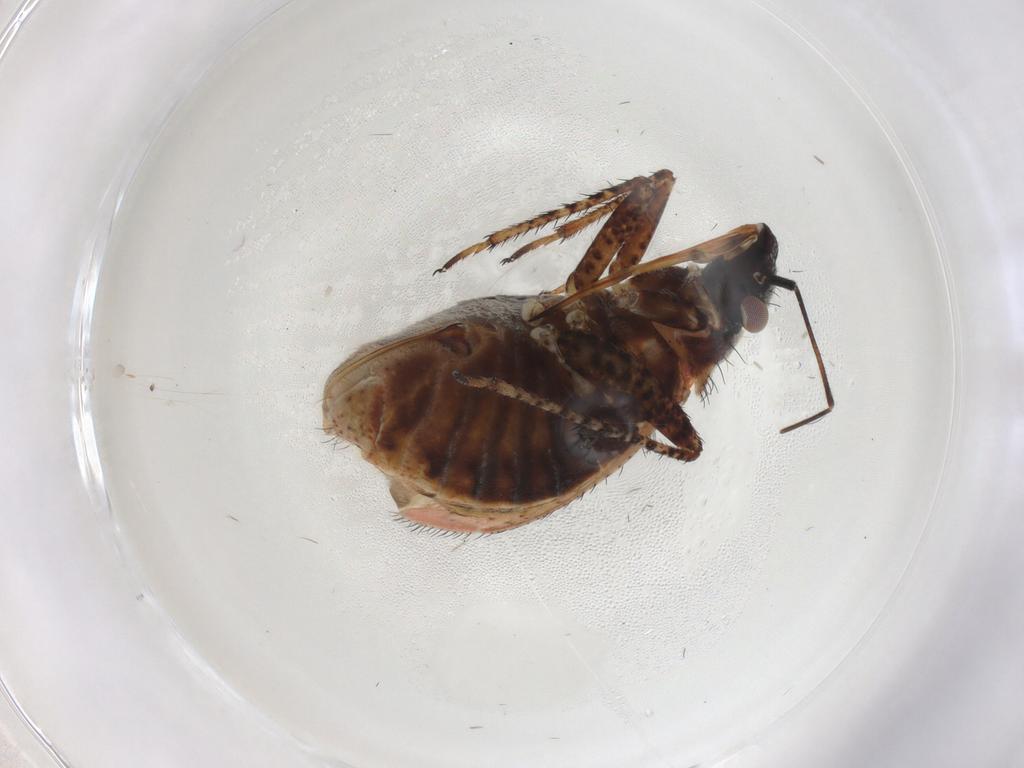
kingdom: Animalia
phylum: Arthropoda
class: Insecta
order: Hemiptera
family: Miridae
